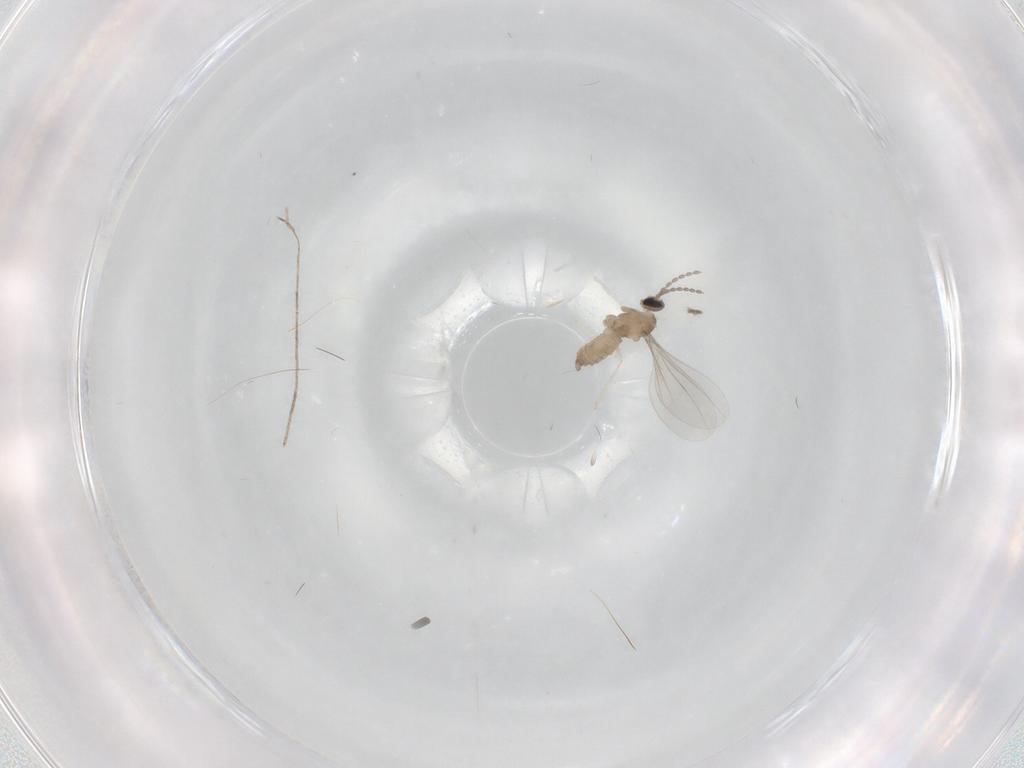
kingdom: Animalia
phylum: Arthropoda
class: Insecta
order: Diptera
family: Cecidomyiidae
